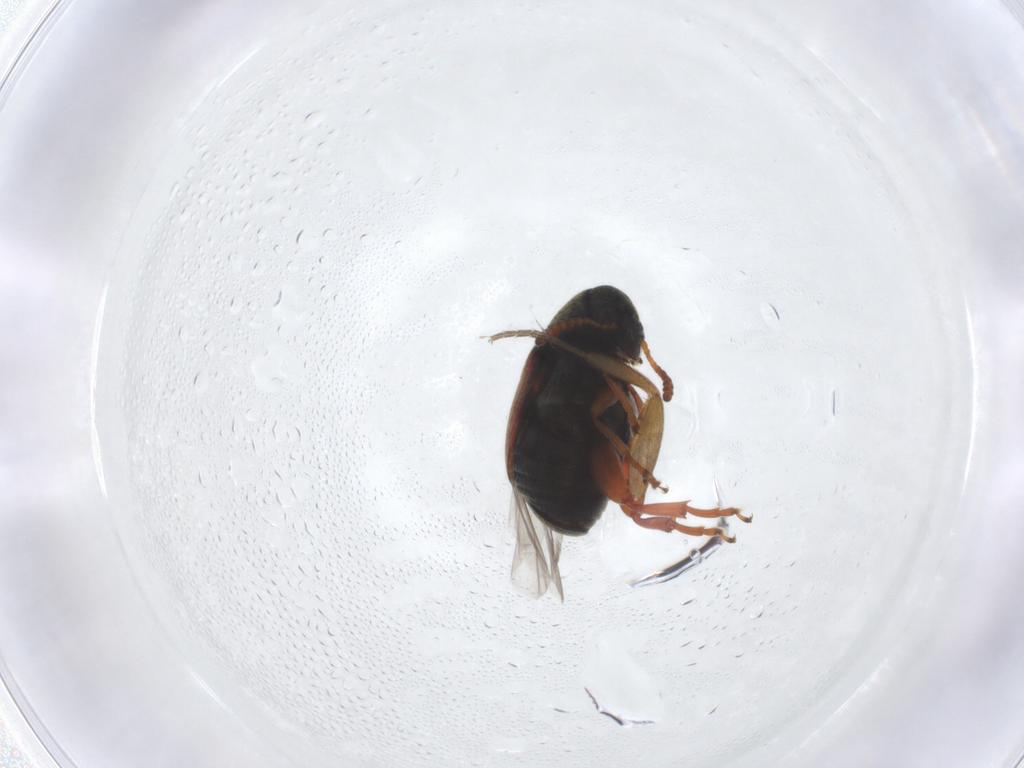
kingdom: Animalia
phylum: Arthropoda
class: Insecta
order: Coleoptera
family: Chrysomelidae
